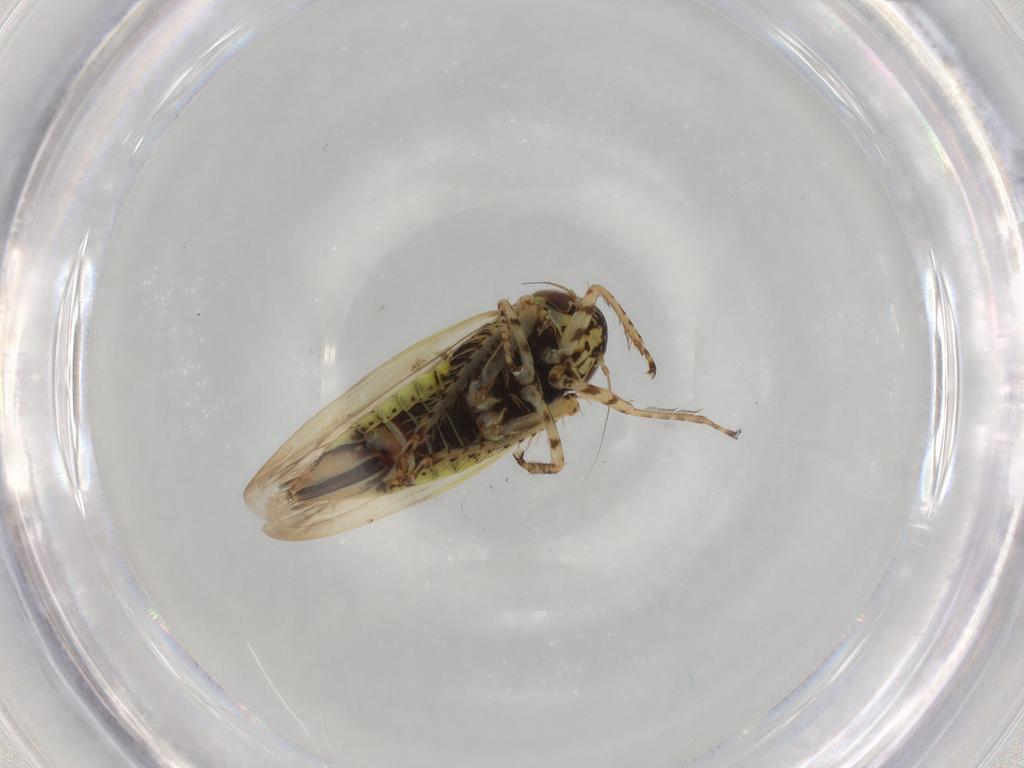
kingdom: Animalia
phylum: Arthropoda
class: Insecta
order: Hemiptera
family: Cicadellidae
